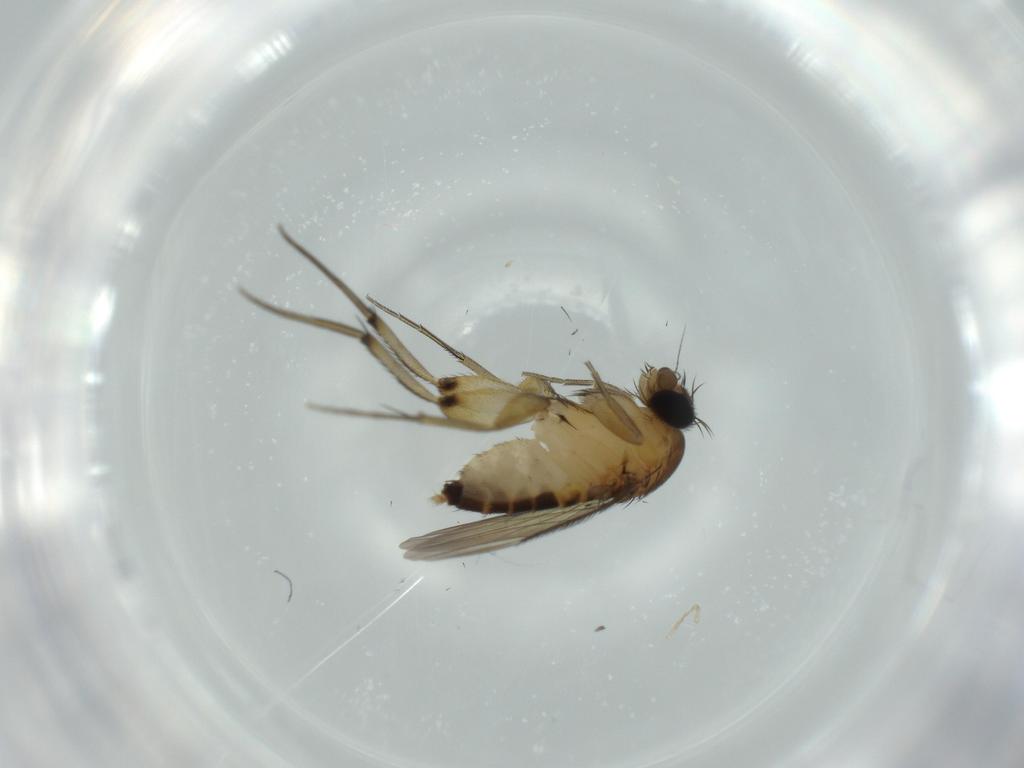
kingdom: Animalia
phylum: Arthropoda
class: Insecta
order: Diptera
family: Phoridae
